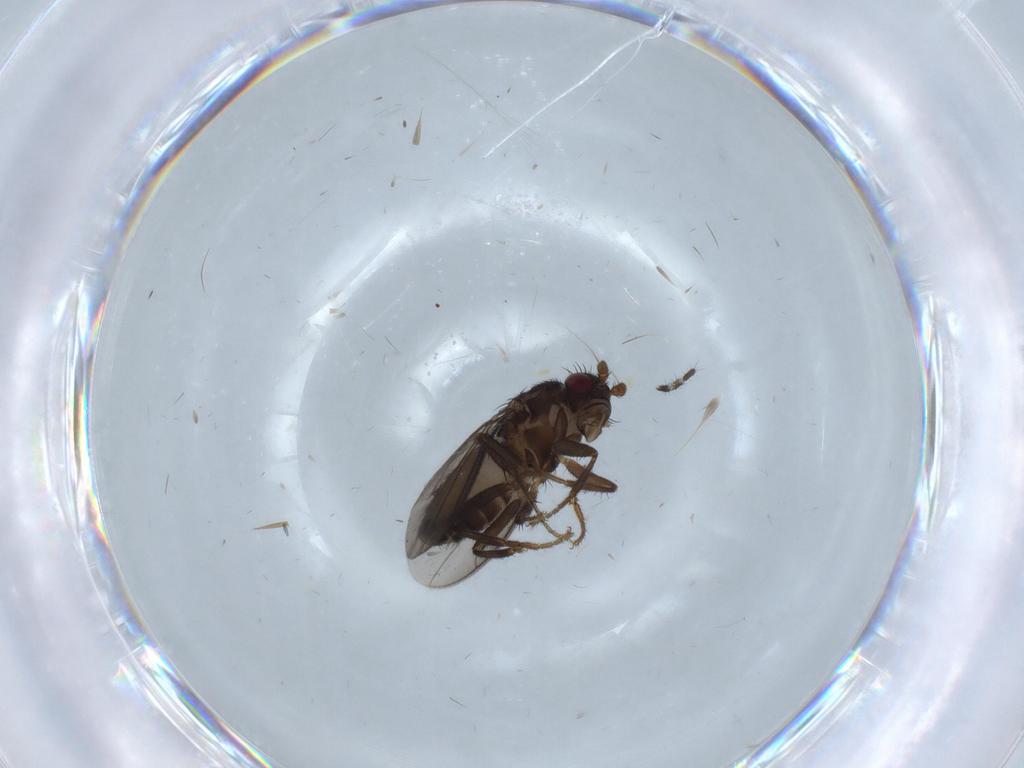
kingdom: Animalia
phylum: Arthropoda
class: Insecta
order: Diptera
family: Limoniidae
